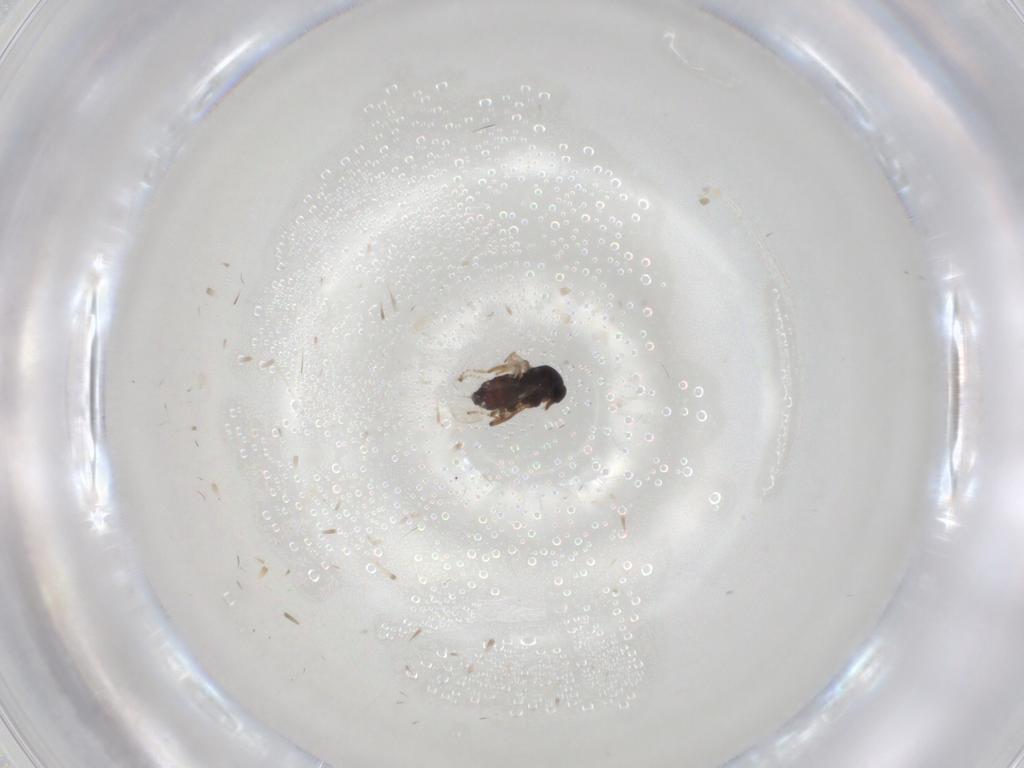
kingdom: Animalia
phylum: Arthropoda
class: Insecta
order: Diptera
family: Ceratopogonidae
